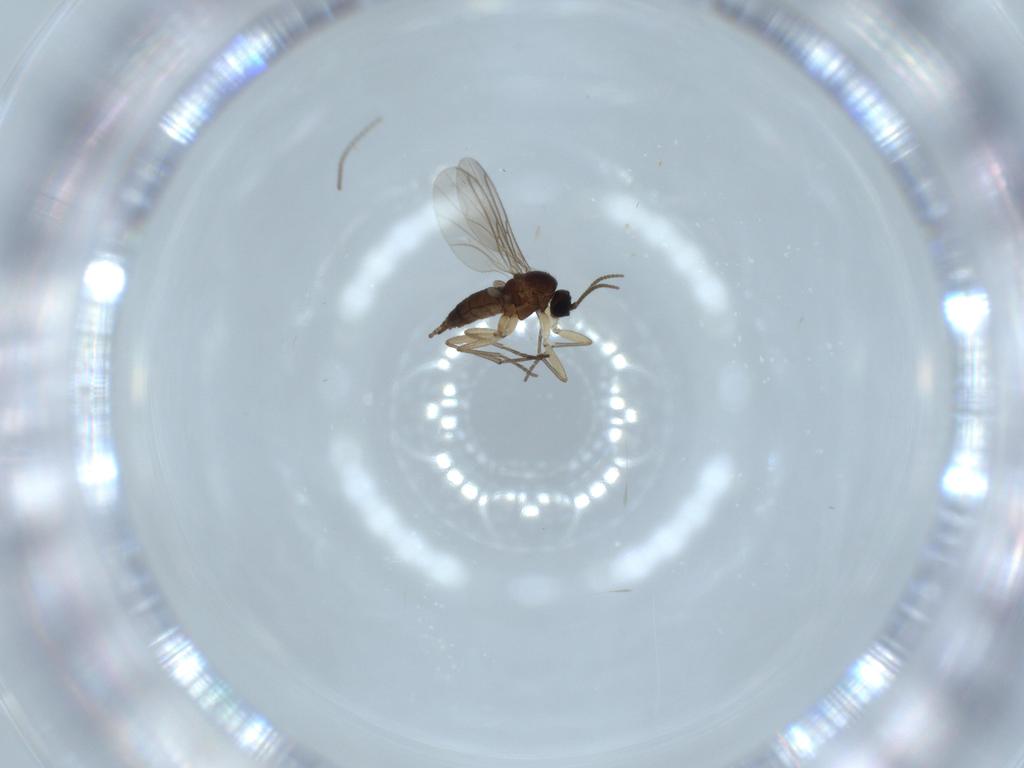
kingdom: Animalia
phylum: Arthropoda
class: Insecta
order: Diptera
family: Sciaridae
